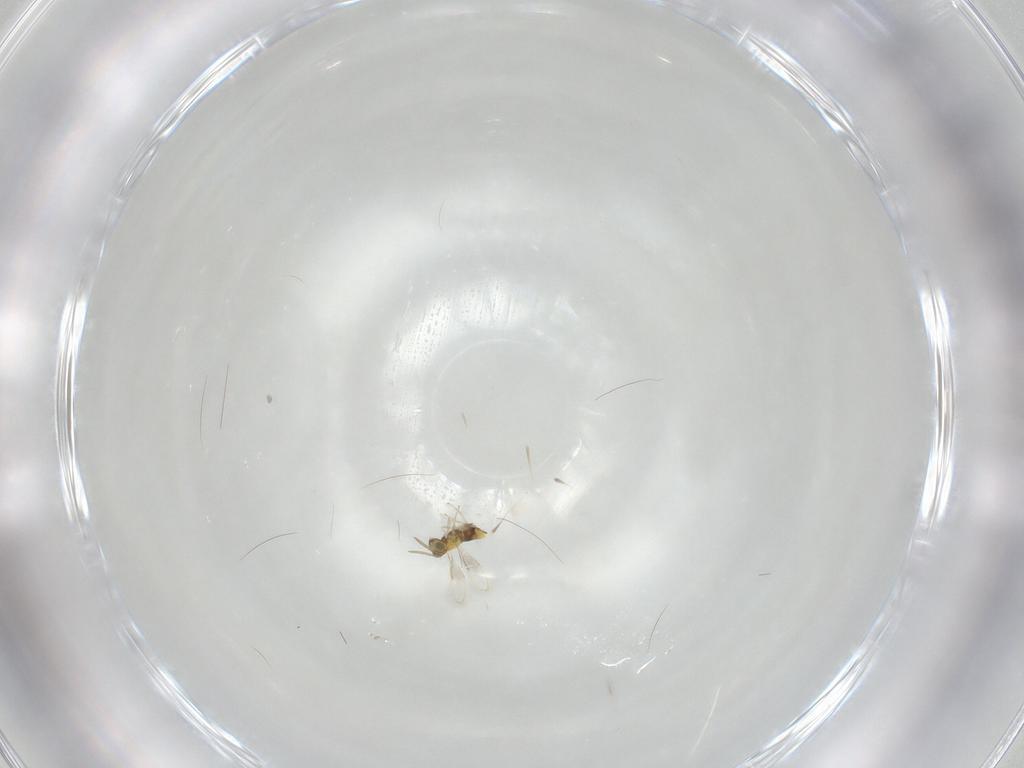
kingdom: Animalia
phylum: Arthropoda
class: Insecta
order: Hymenoptera
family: Aphelinidae
